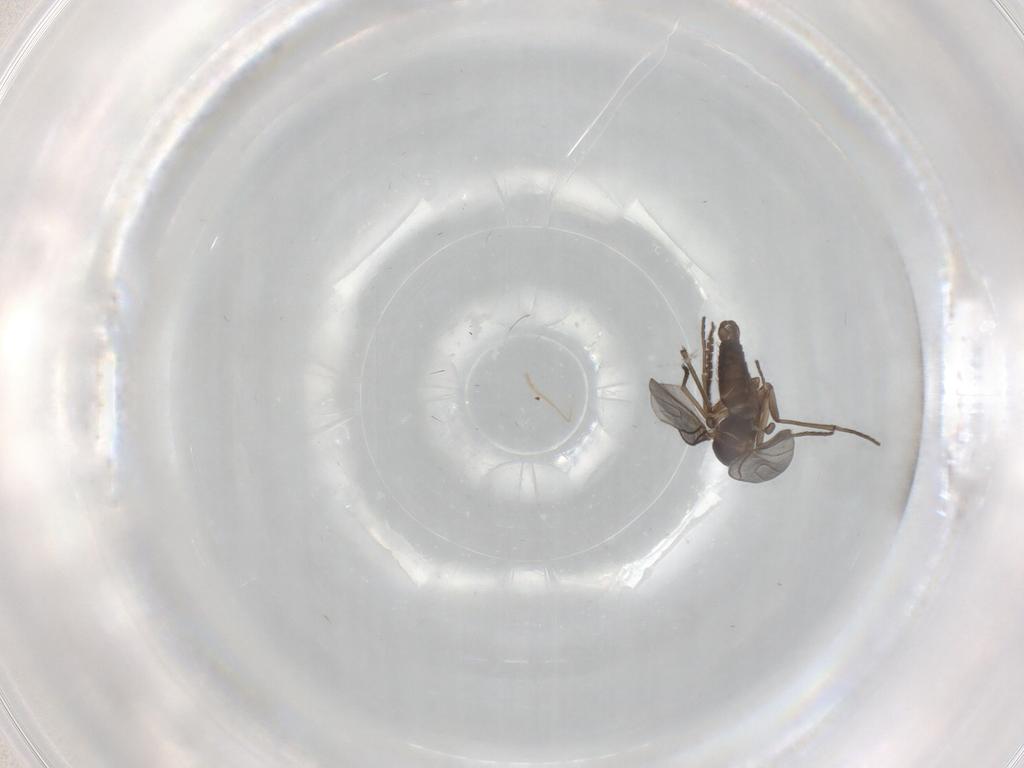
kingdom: Animalia
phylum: Arthropoda
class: Insecta
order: Diptera
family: Sciaridae
